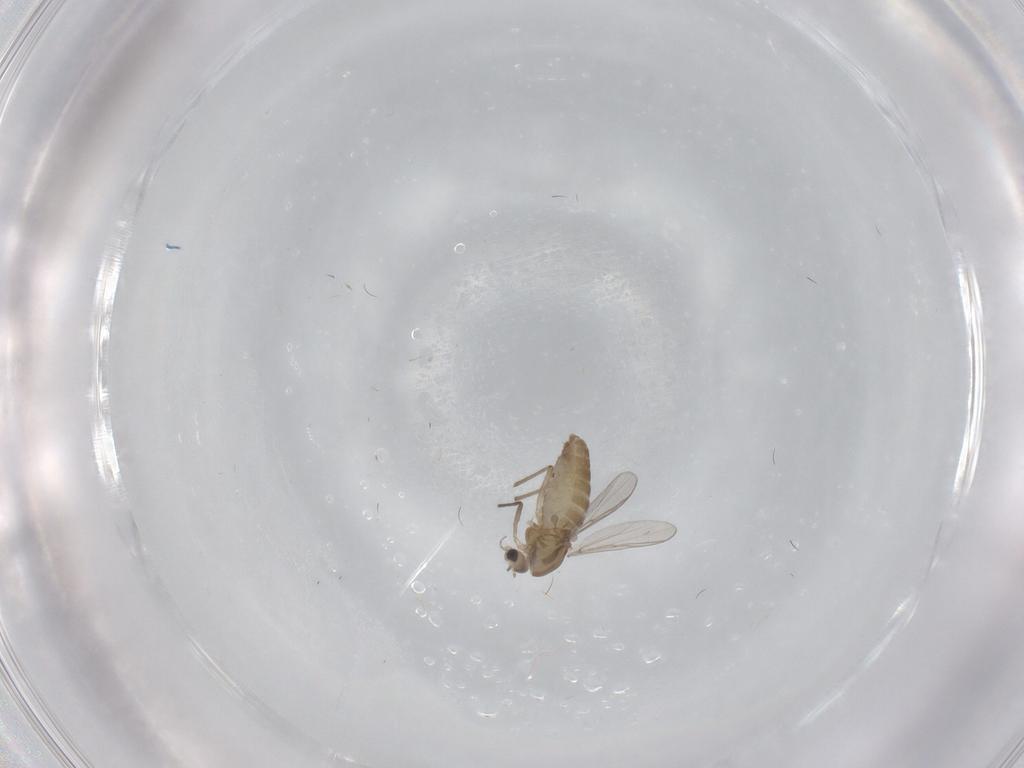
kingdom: Animalia
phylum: Arthropoda
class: Insecta
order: Diptera
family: Chironomidae
